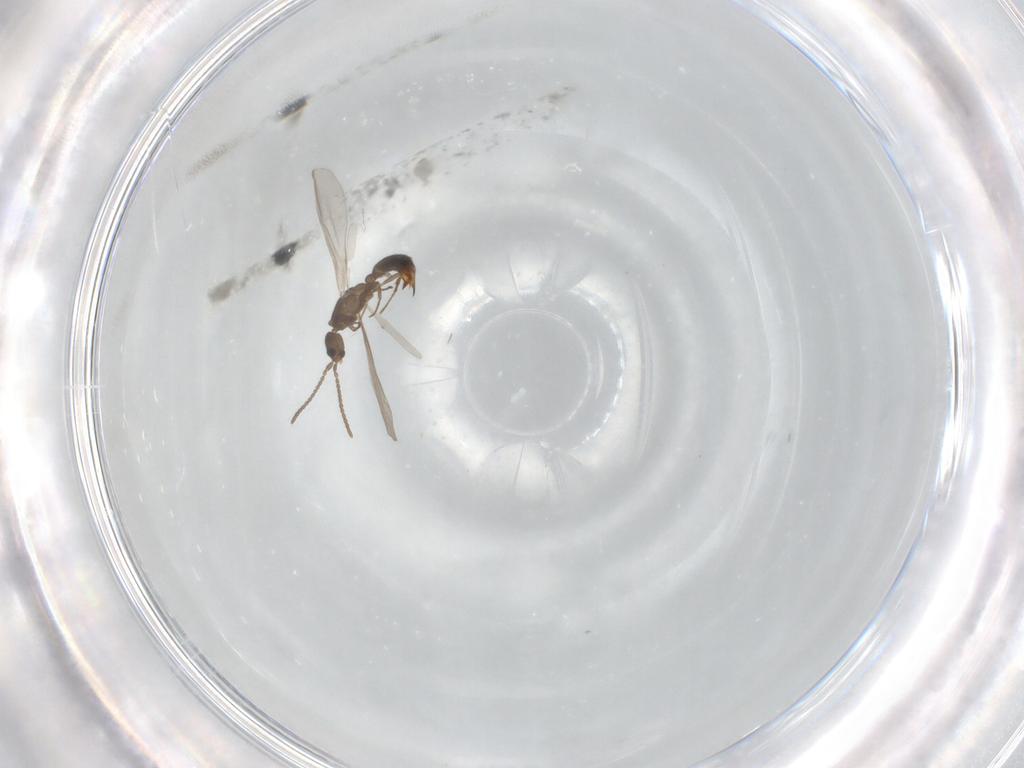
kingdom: Animalia
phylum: Arthropoda
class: Insecta
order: Hymenoptera
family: Formicidae
